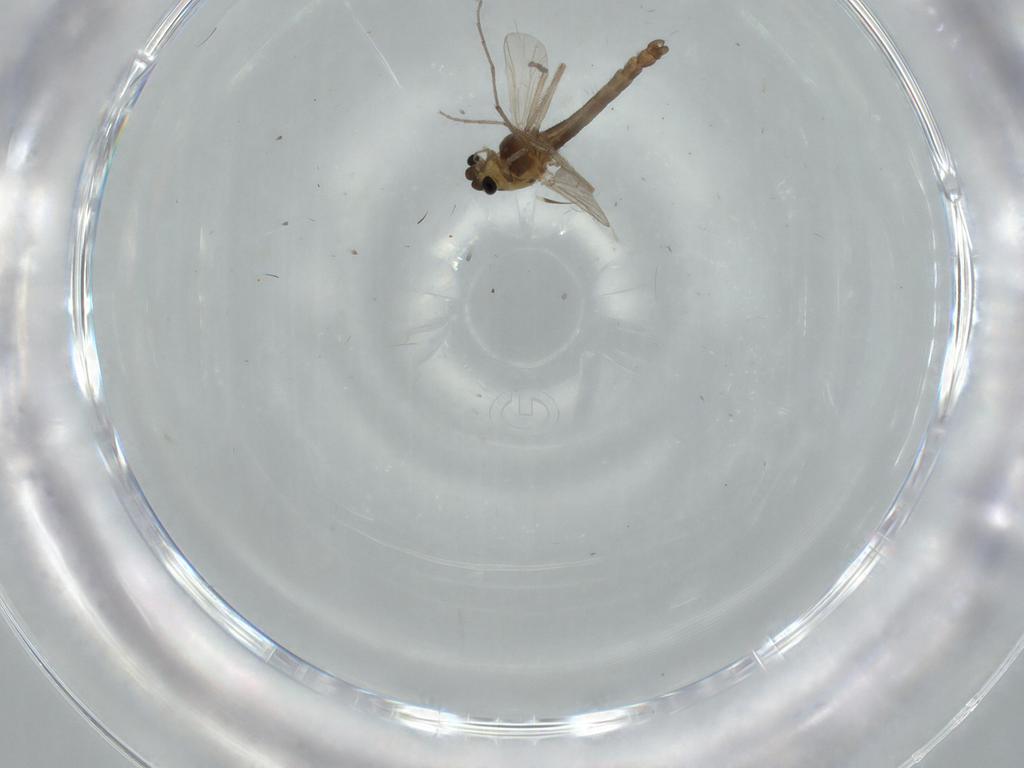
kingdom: Animalia
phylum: Arthropoda
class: Insecta
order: Diptera
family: Chironomidae
